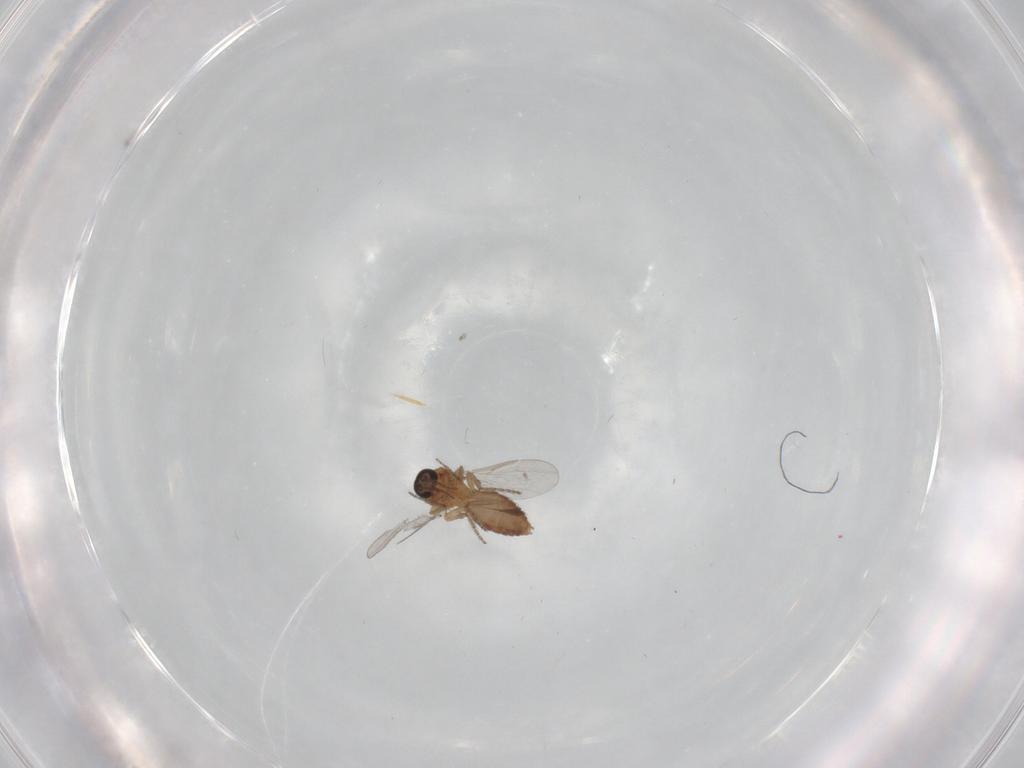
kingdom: Animalia
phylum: Arthropoda
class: Insecta
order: Diptera
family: Ceratopogonidae
